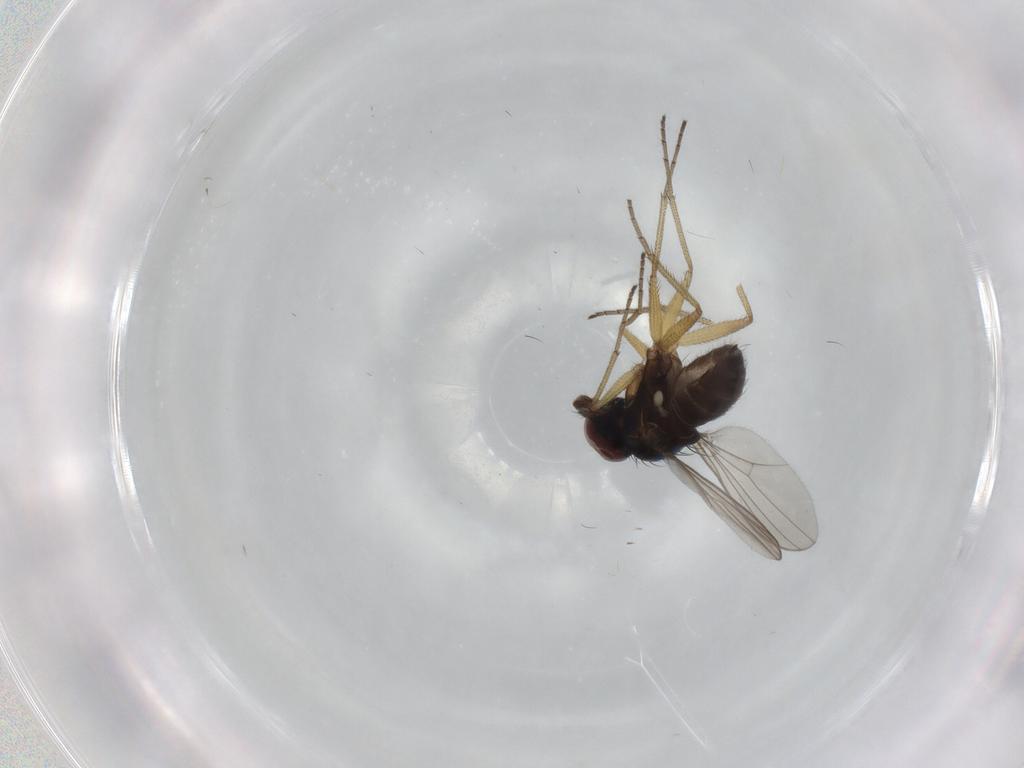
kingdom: Animalia
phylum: Arthropoda
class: Insecta
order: Diptera
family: Dolichopodidae
